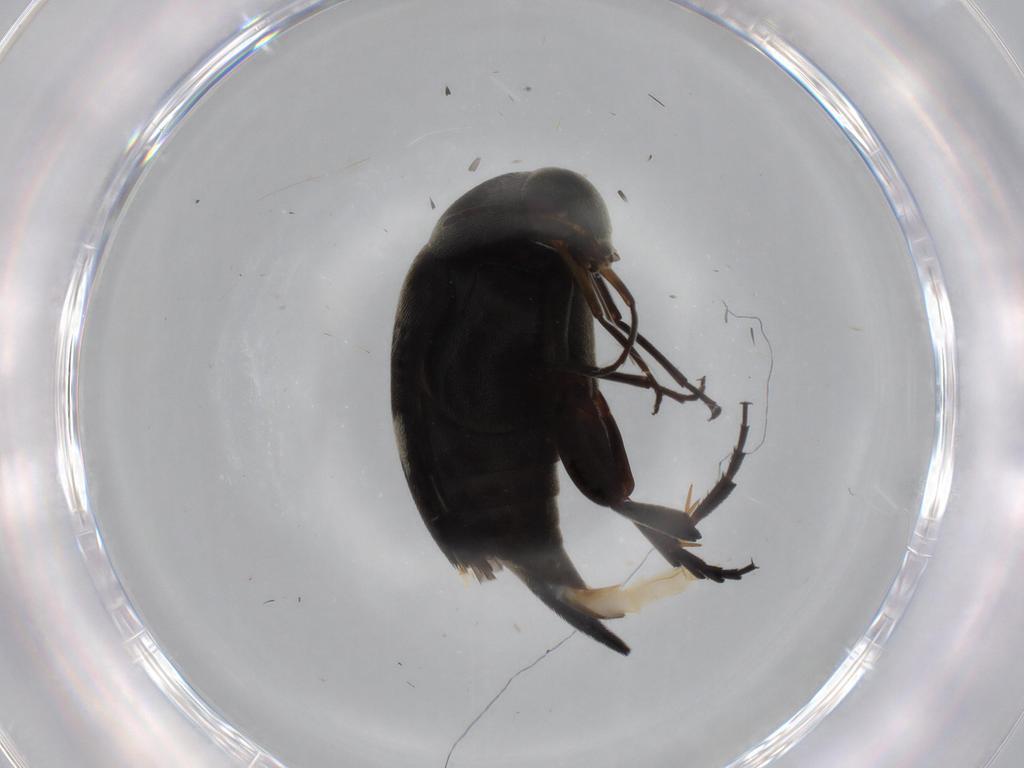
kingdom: Animalia
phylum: Arthropoda
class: Insecta
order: Coleoptera
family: Mordellidae
